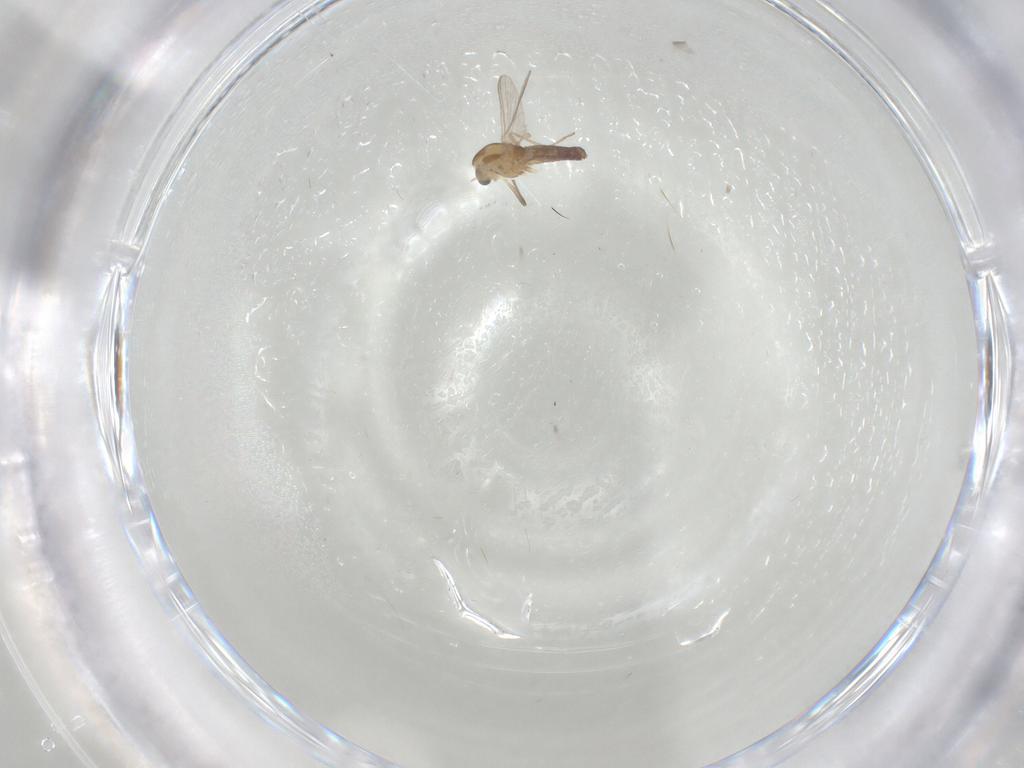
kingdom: Animalia
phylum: Arthropoda
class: Insecta
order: Diptera
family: Chironomidae
